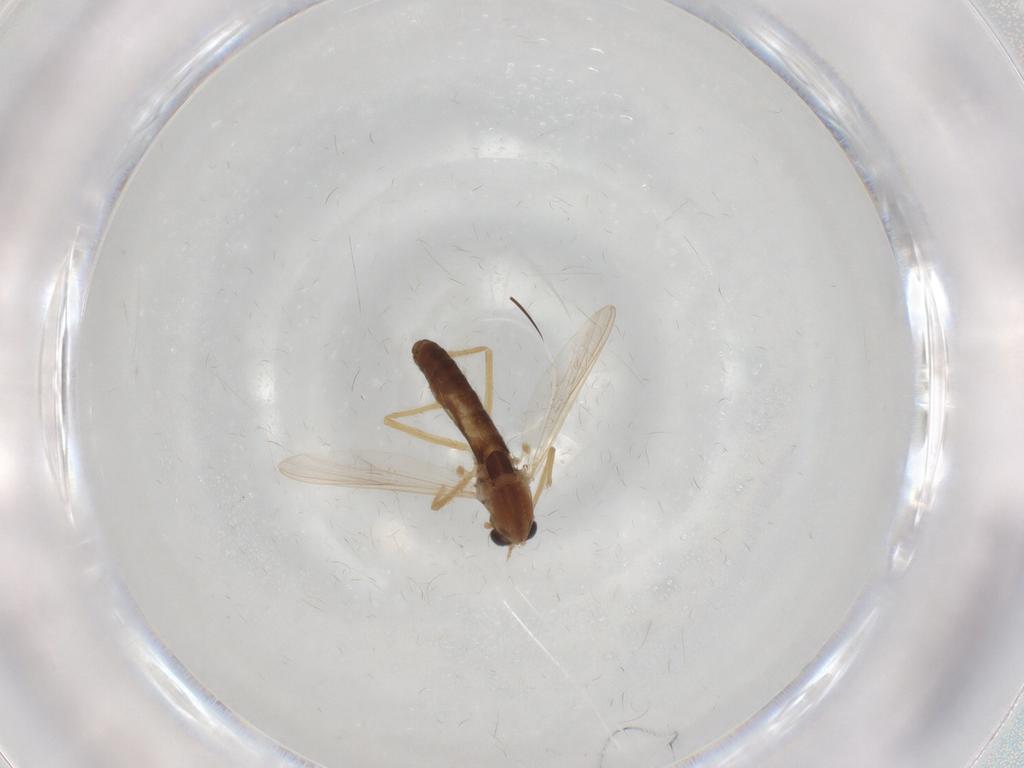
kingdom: Animalia
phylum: Arthropoda
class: Insecta
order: Diptera
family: Chironomidae
